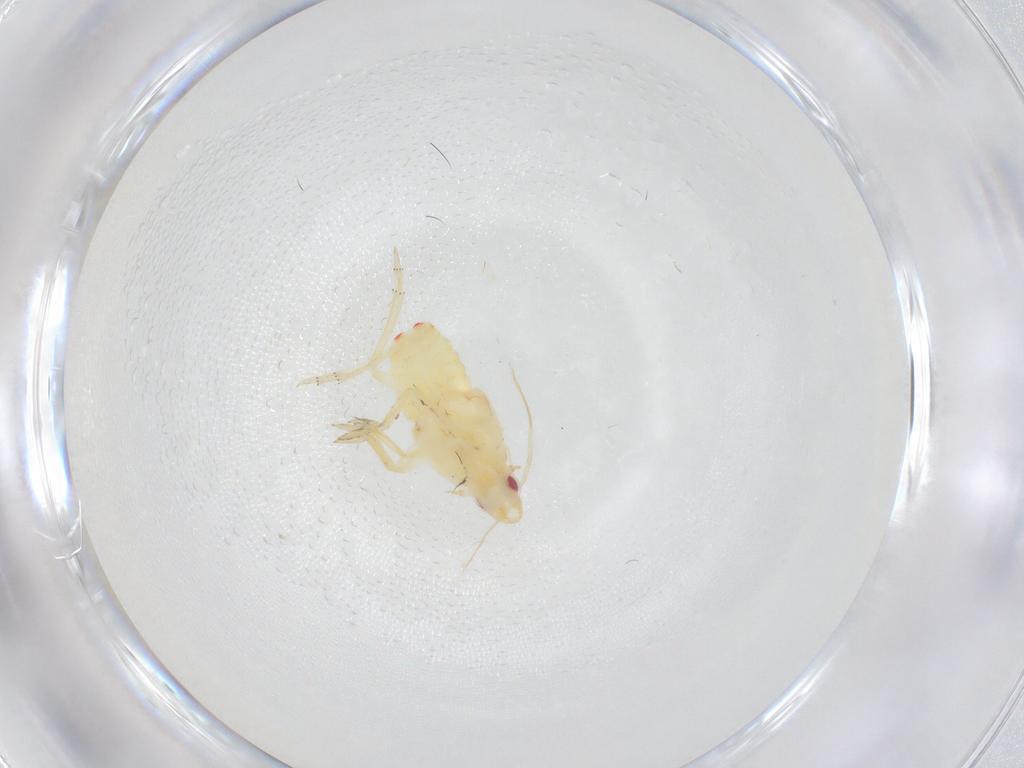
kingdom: Animalia
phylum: Arthropoda
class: Insecta
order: Hemiptera
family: Flatidae
